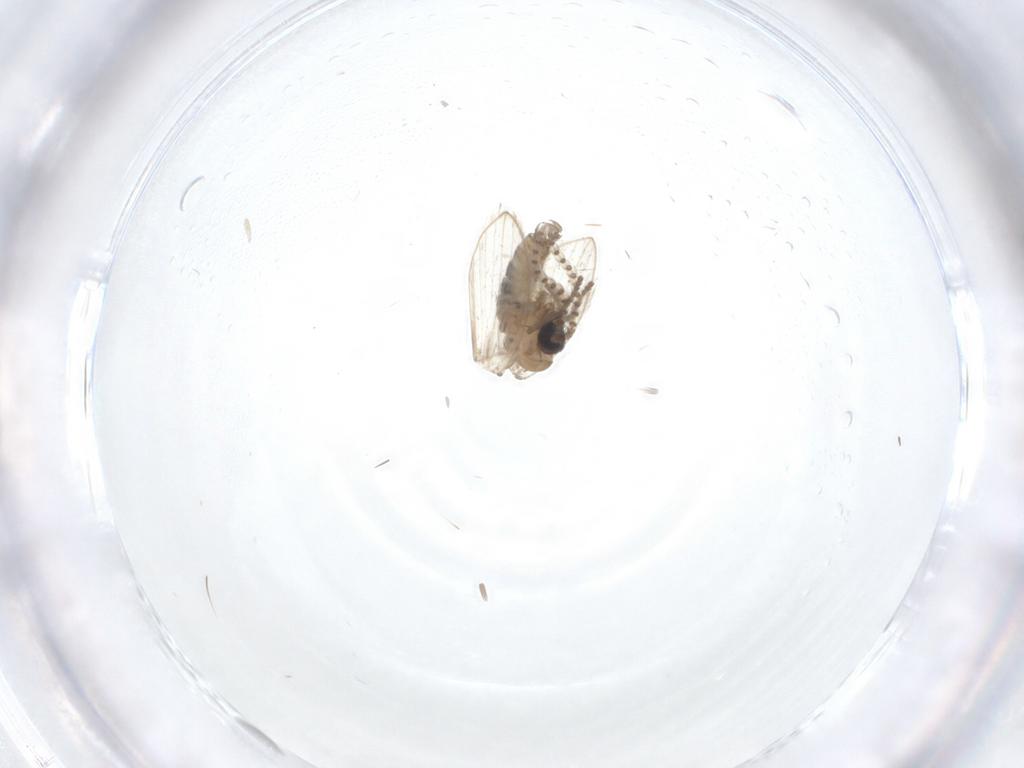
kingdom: Animalia
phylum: Arthropoda
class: Insecta
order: Diptera
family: Psychodidae
